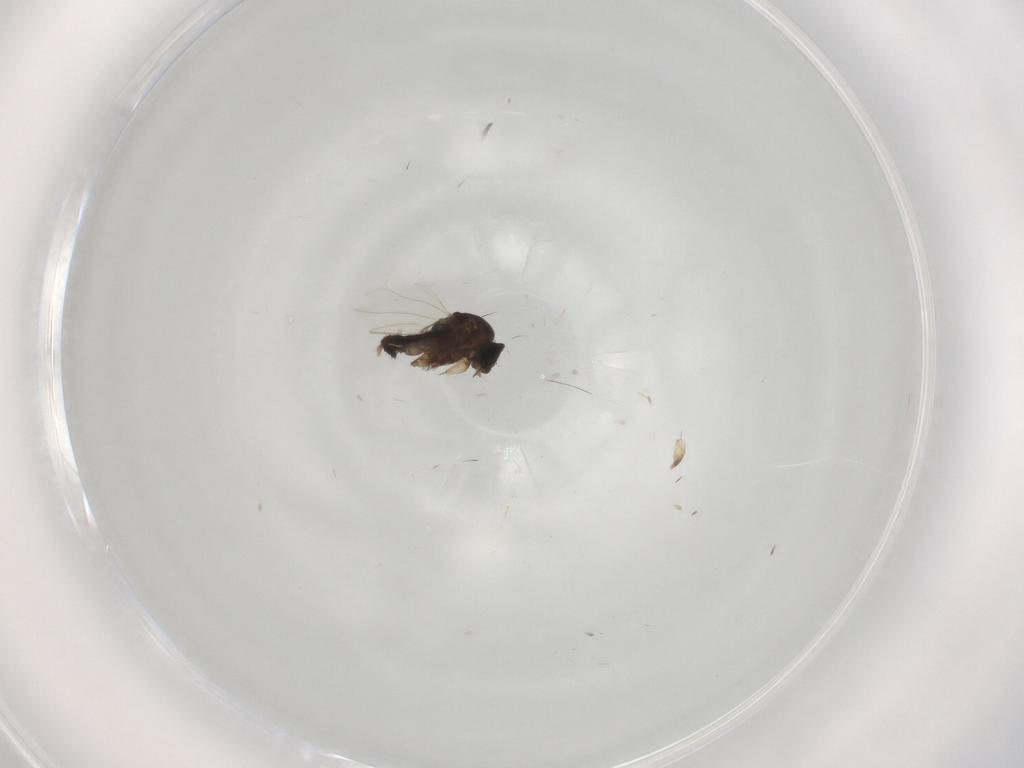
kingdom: Animalia
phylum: Arthropoda
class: Insecta
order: Diptera
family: Phoridae
